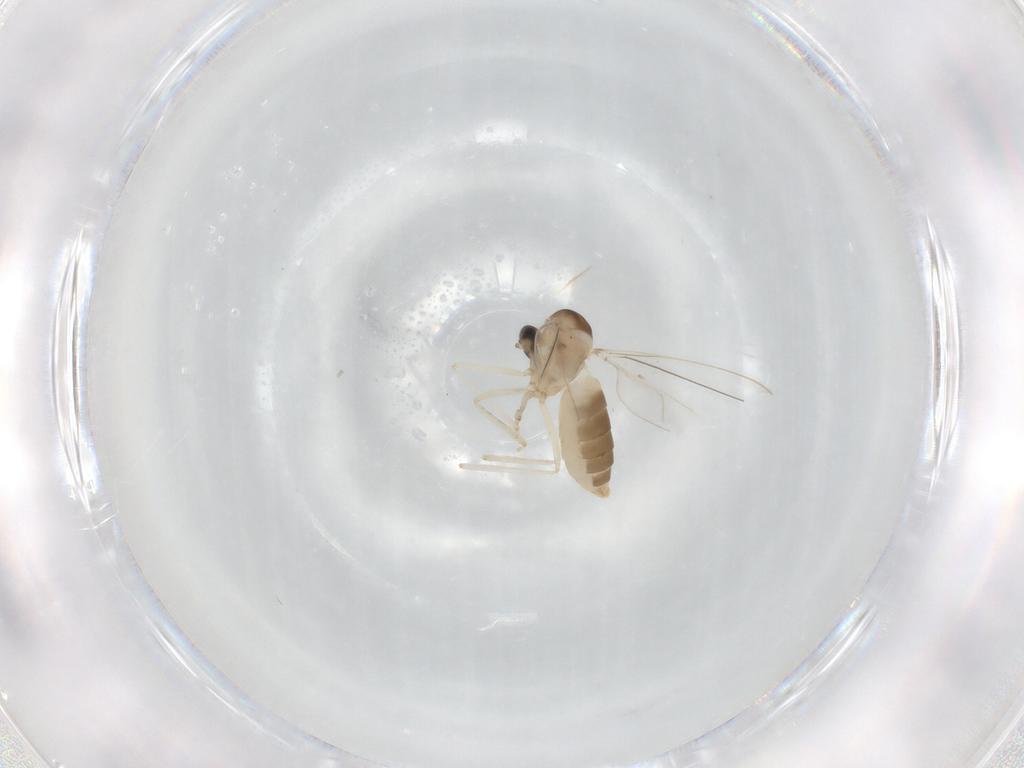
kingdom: Animalia
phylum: Arthropoda
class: Insecta
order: Diptera
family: Cecidomyiidae
